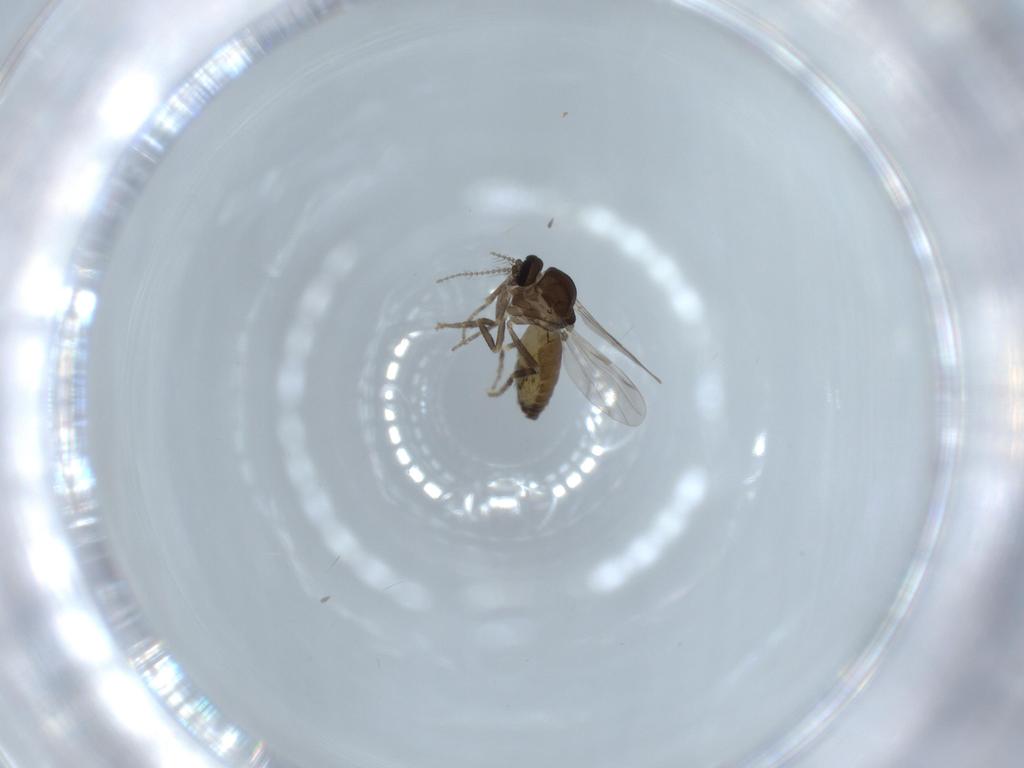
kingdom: Animalia
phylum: Arthropoda
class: Insecta
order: Diptera
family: Ceratopogonidae
